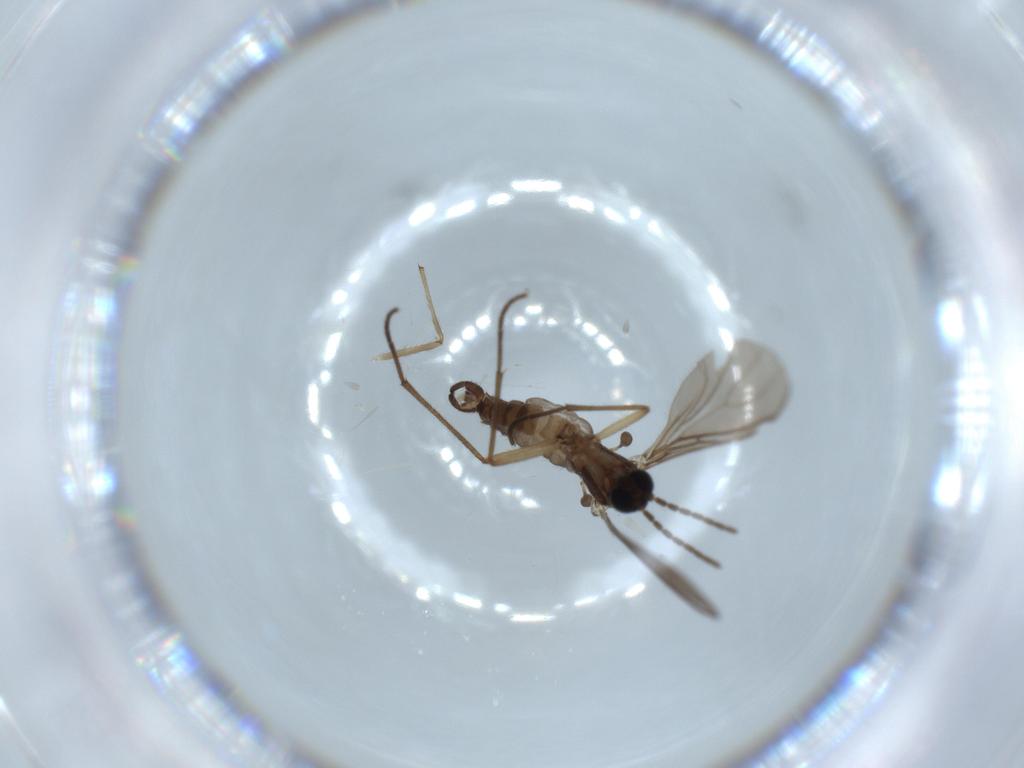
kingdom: Animalia
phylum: Arthropoda
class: Insecta
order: Diptera
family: Chironomidae
